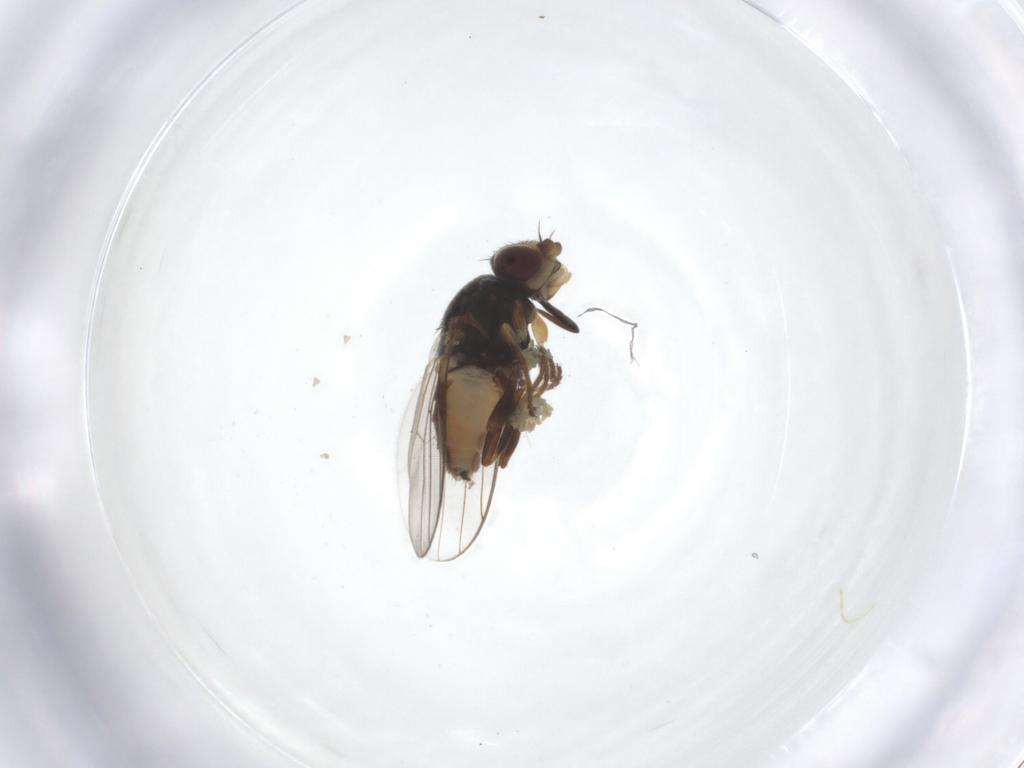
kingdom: Animalia
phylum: Arthropoda
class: Insecta
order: Diptera
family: Chloropidae
